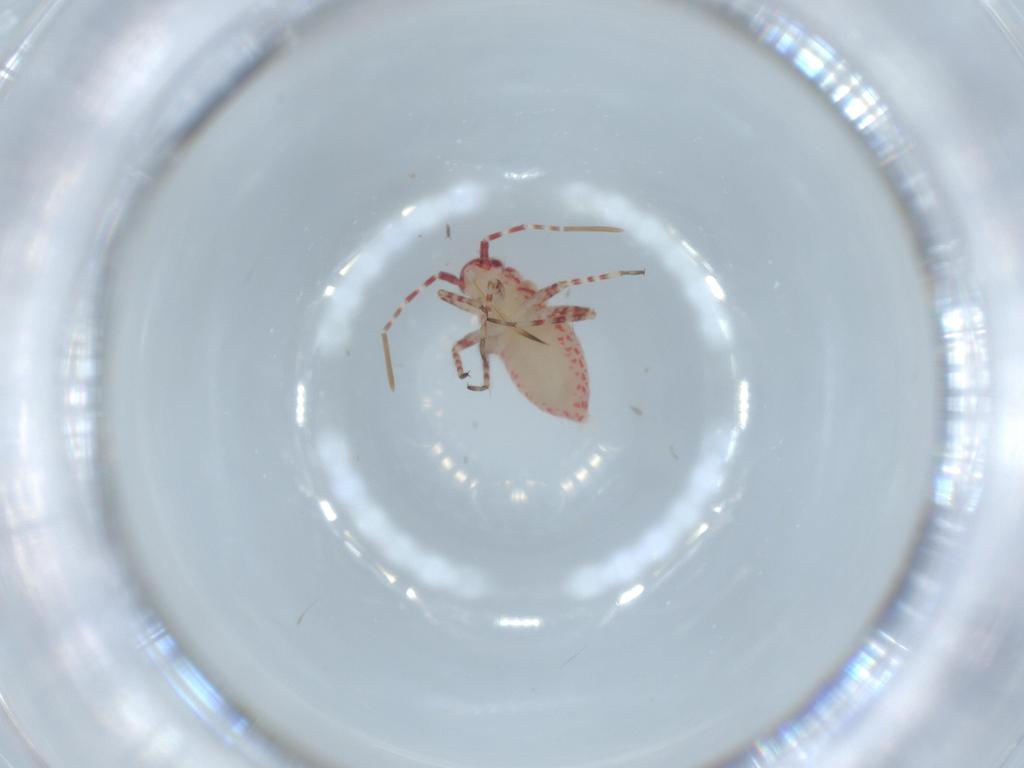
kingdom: Animalia
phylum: Arthropoda
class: Insecta
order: Hemiptera
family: Miridae
